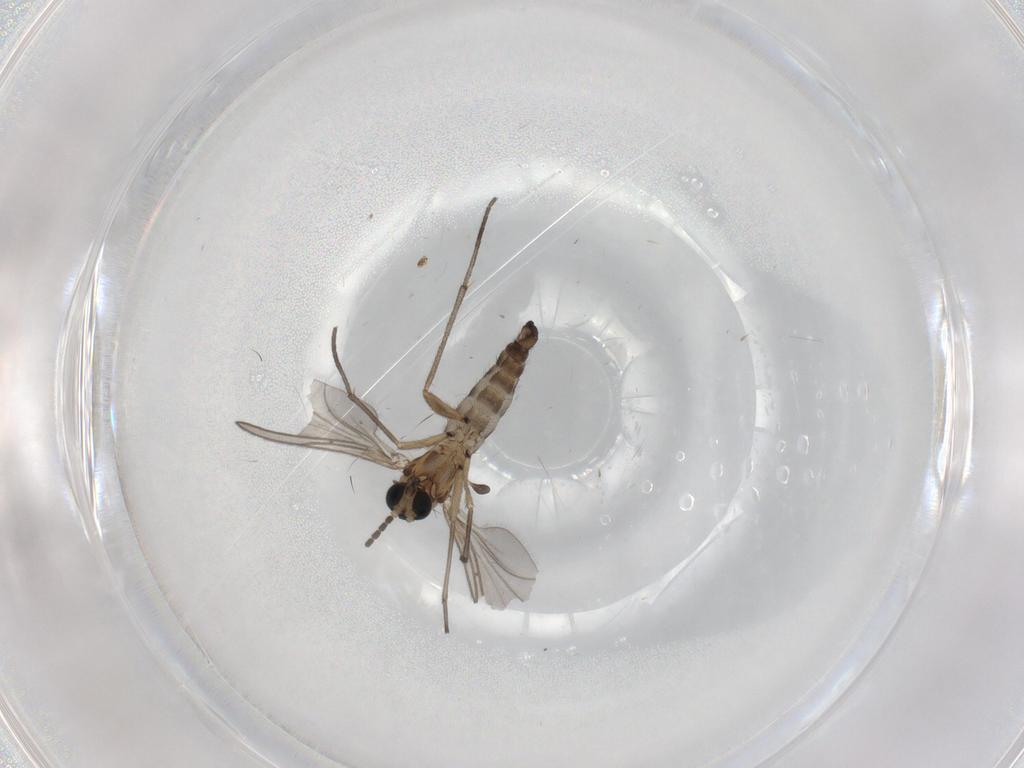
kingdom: Animalia
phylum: Arthropoda
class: Insecta
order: Diptera
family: Sciaridae
